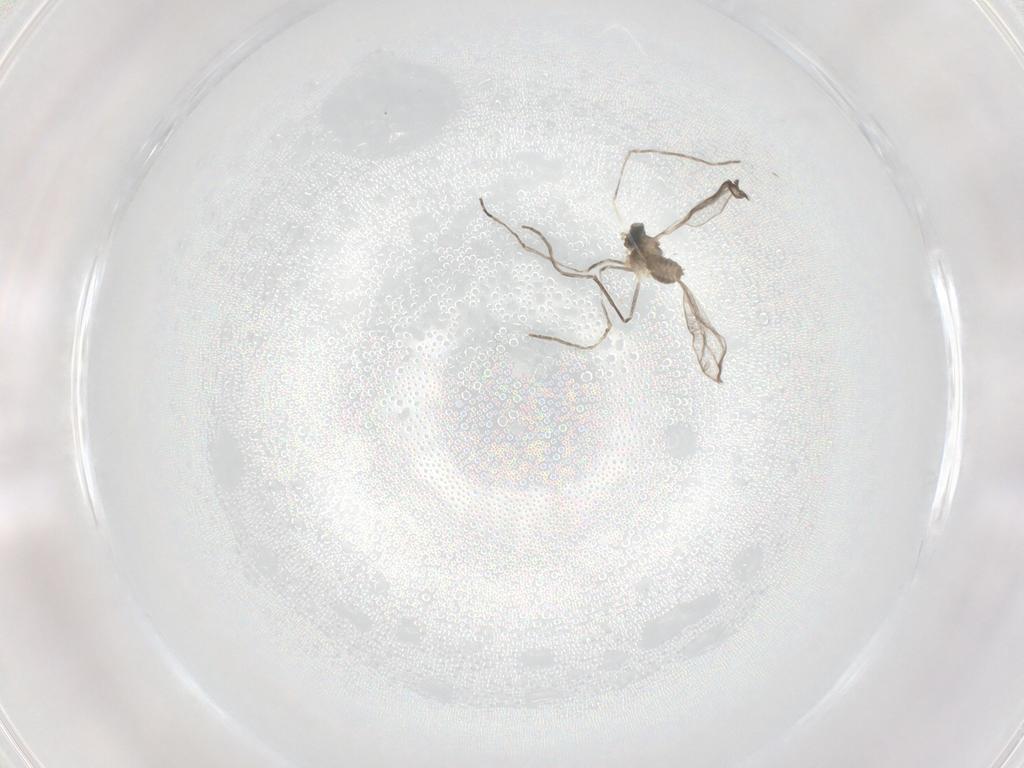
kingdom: Animalia
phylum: Arthropoda
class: Insecta
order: Diptera
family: Sciaridae
